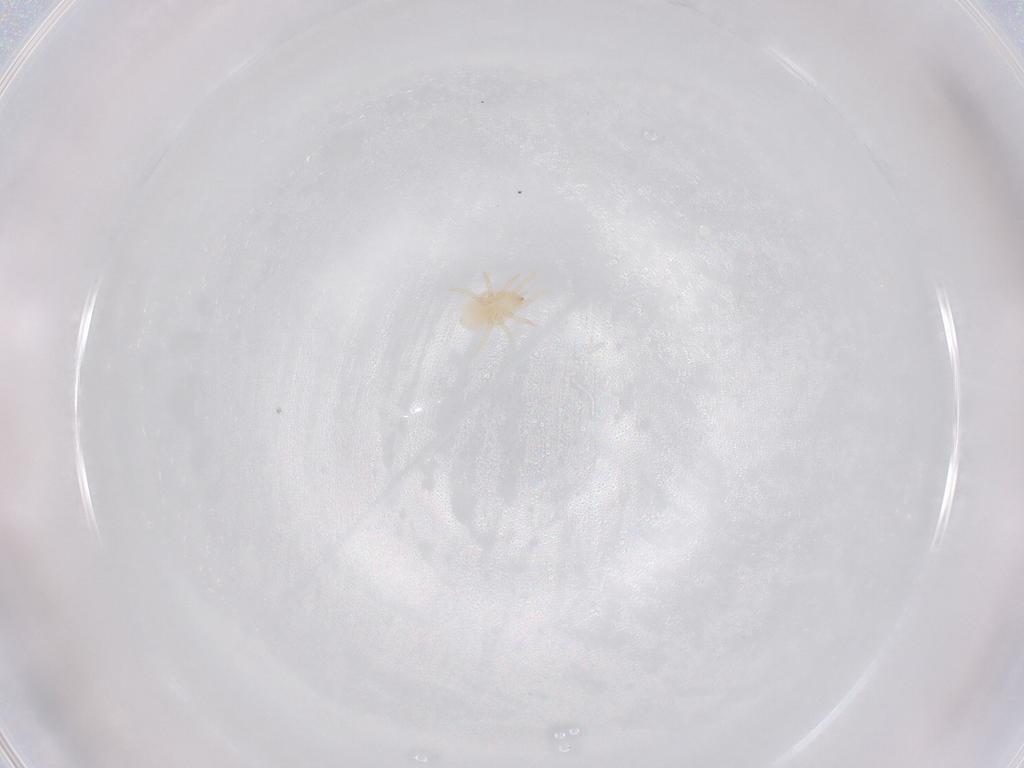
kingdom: Animalia
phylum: Arthropoda
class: Arachnida
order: Mesostigmata
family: Laelapidae
